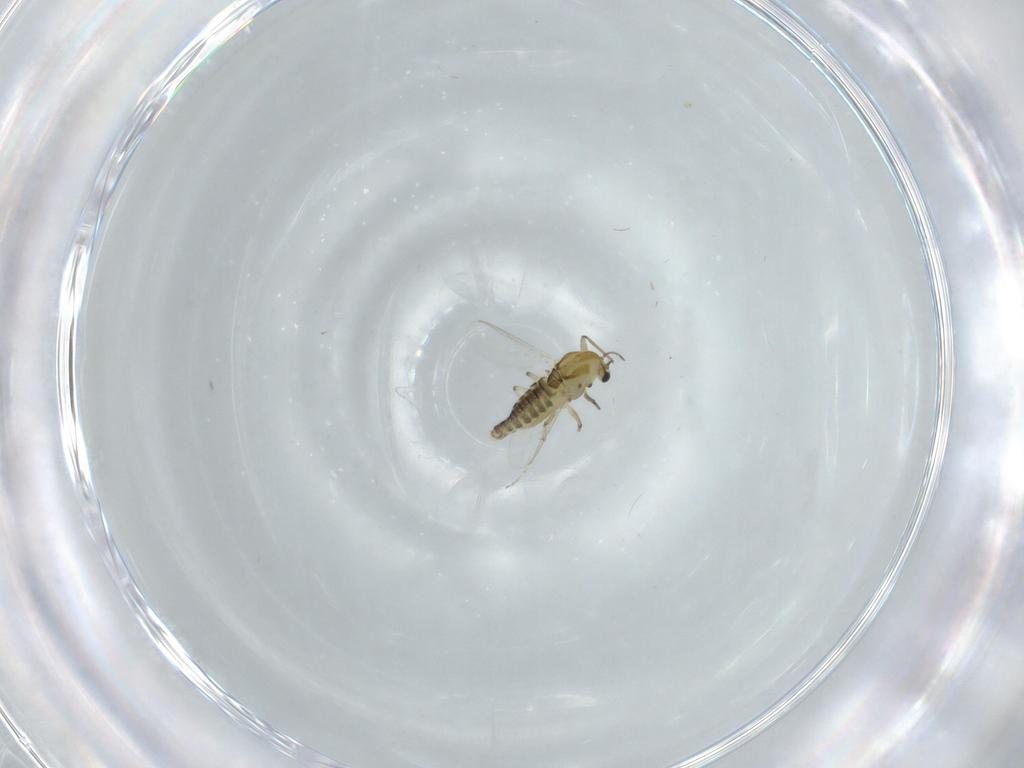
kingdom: Animalia
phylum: Arthropoda
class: Insecta
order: Diptera
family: Chironomidae
